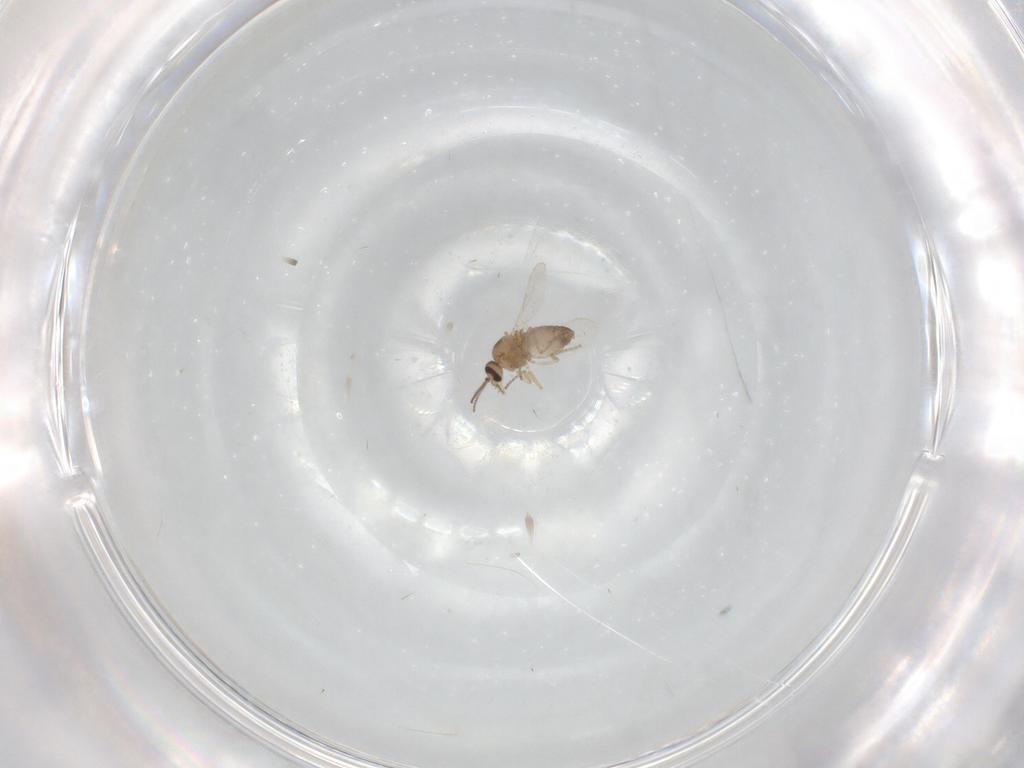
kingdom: Animalia
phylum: Arthropoda
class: Insecta
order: Diptera
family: Ceratopogonidae
